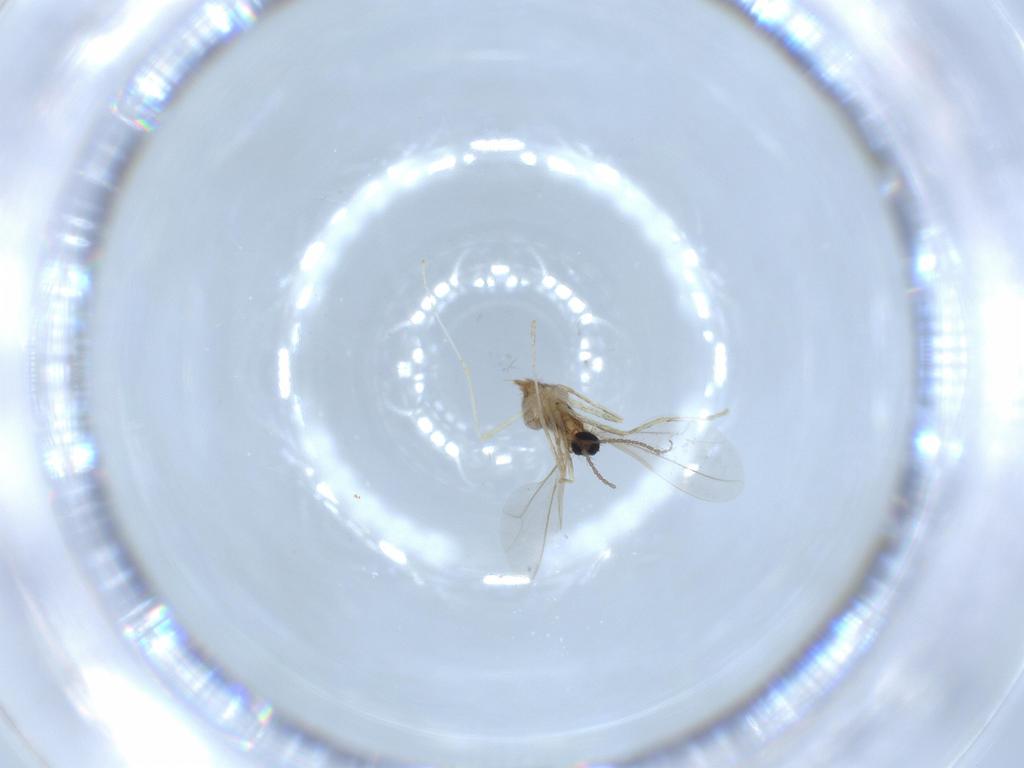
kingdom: Animalia
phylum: Arthropoda
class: Insecta
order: Diptera
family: Cecidomyiidae
